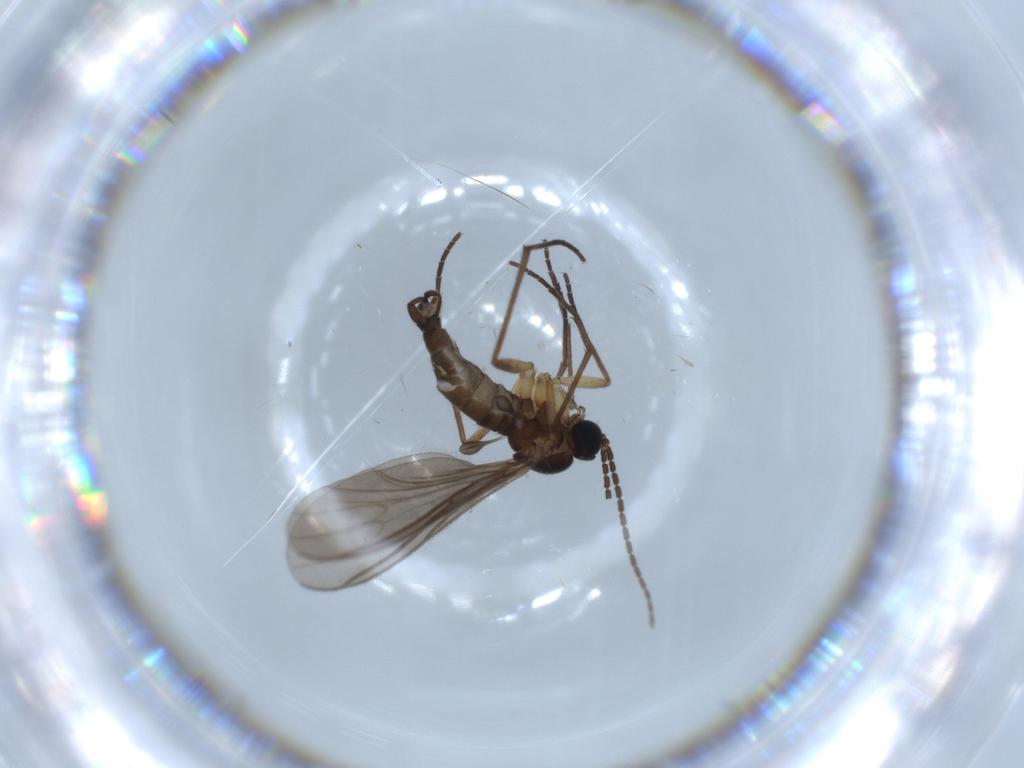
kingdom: Animalia
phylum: Arthropoda
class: Insecta
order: Diptera
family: Sciaridae
